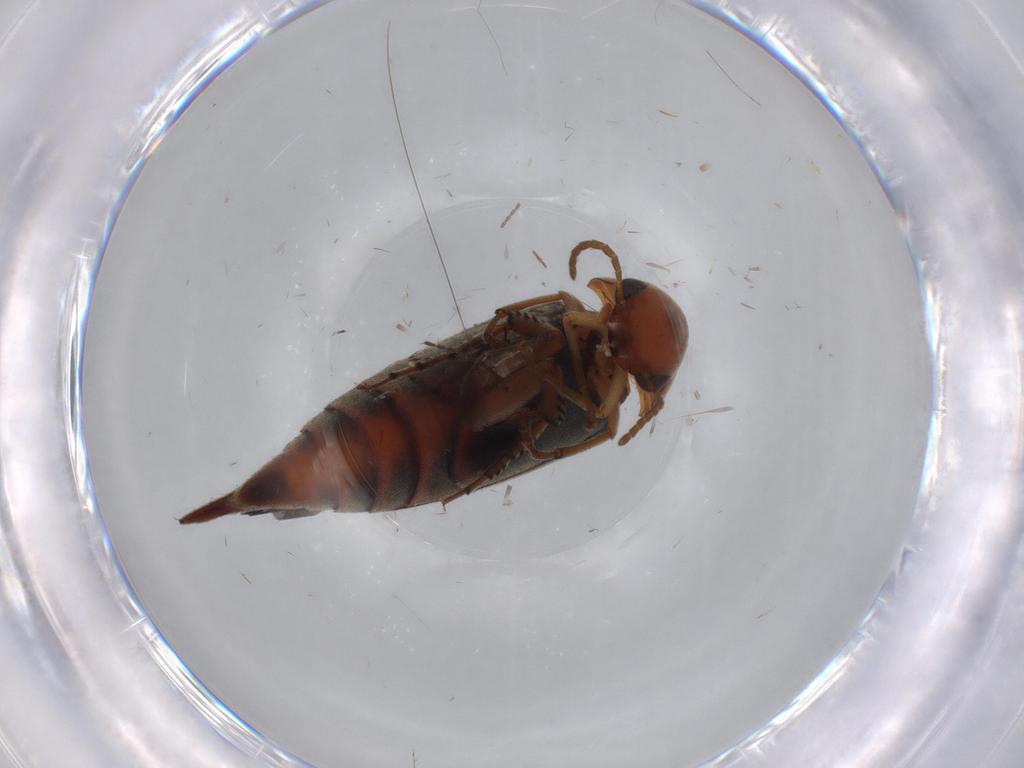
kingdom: Animalia
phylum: Arthropoda
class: Insecta
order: Coleoptera
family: Mordellidae
